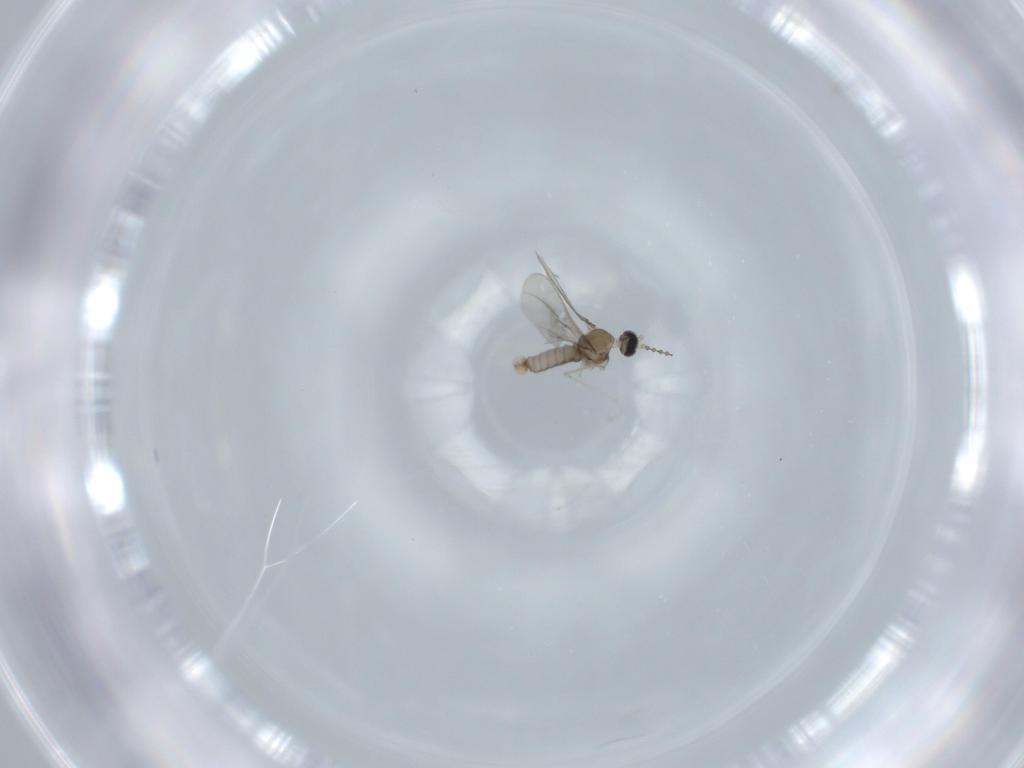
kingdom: Animalia
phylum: Arthropoda
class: Insecta
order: Diptera
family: Cecidomyiidae
